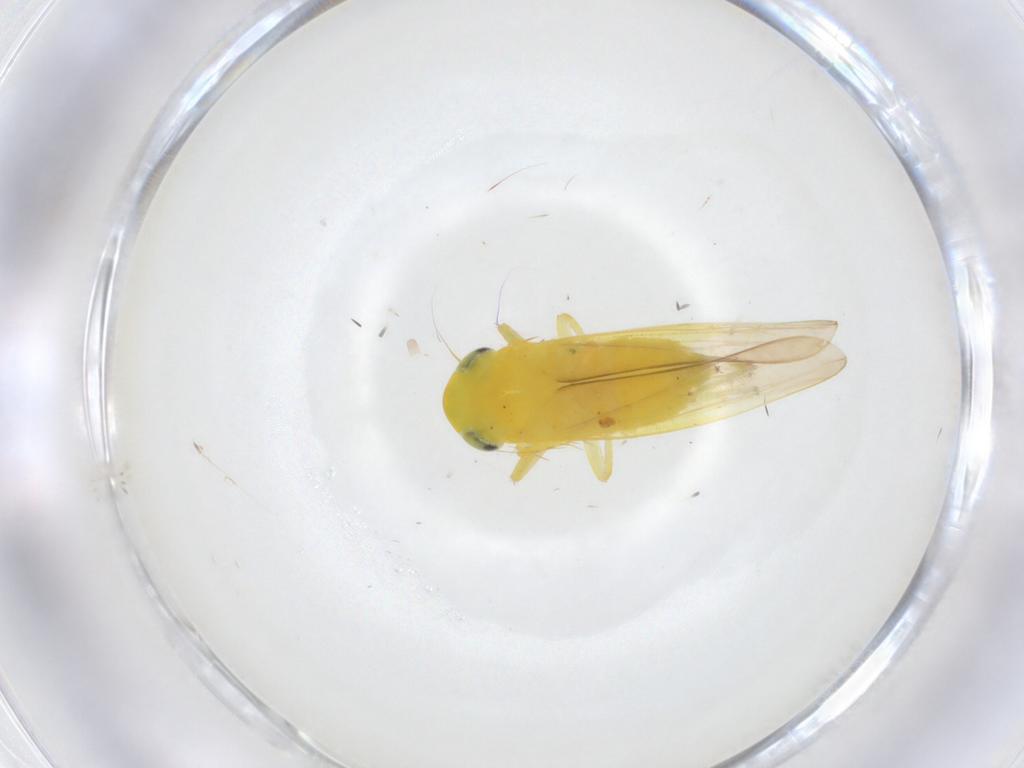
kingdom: Animalia
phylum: Arthropoda
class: Insecta
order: Hemiptera
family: Cicadellidae
